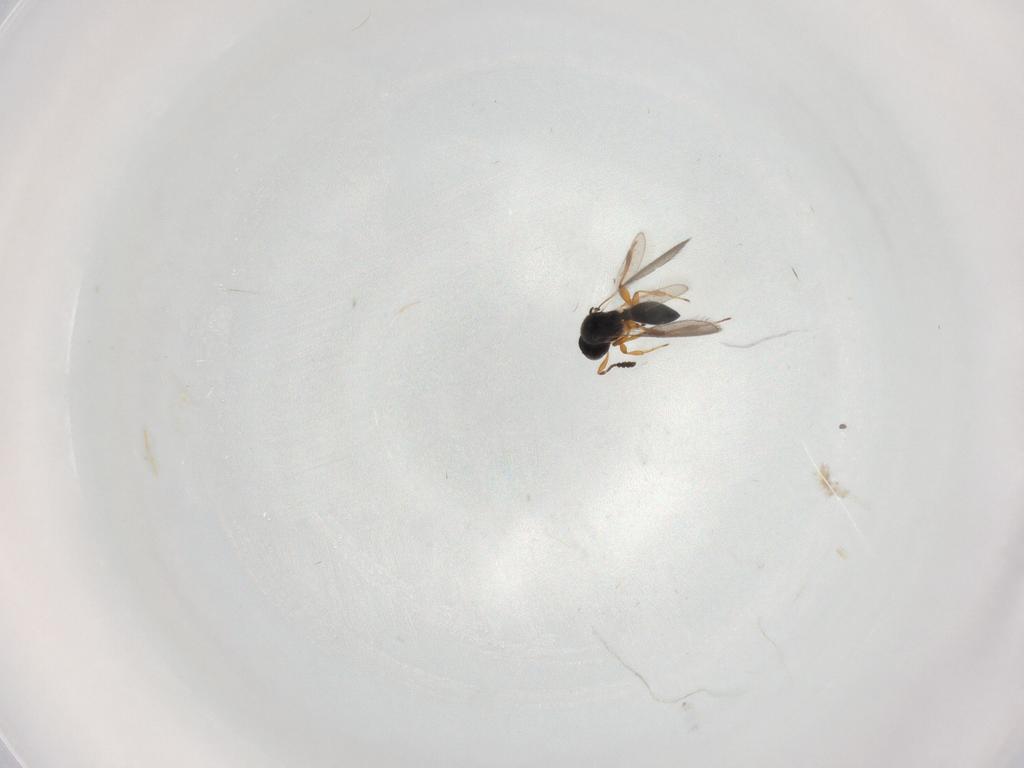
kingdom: Animalia
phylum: Arthropoda
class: Insecta
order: Hymenoptera
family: Platygastridae
